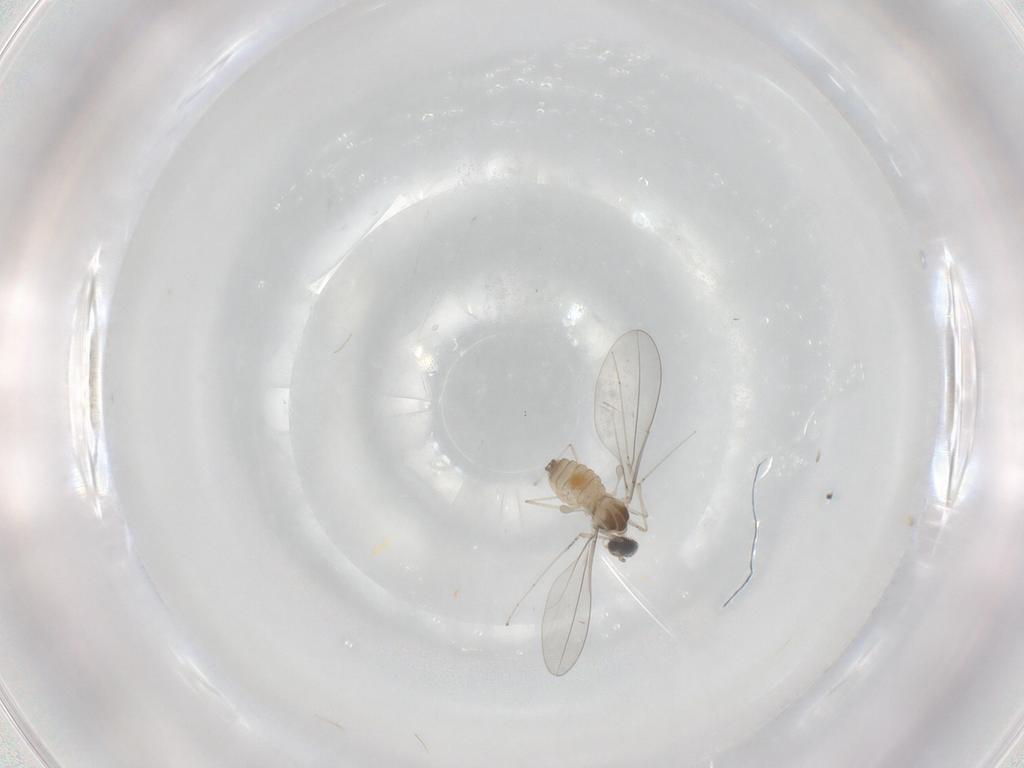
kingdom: Animalia
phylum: Arthropoda
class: Insecta
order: Diptera
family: Cecidomyiidae
